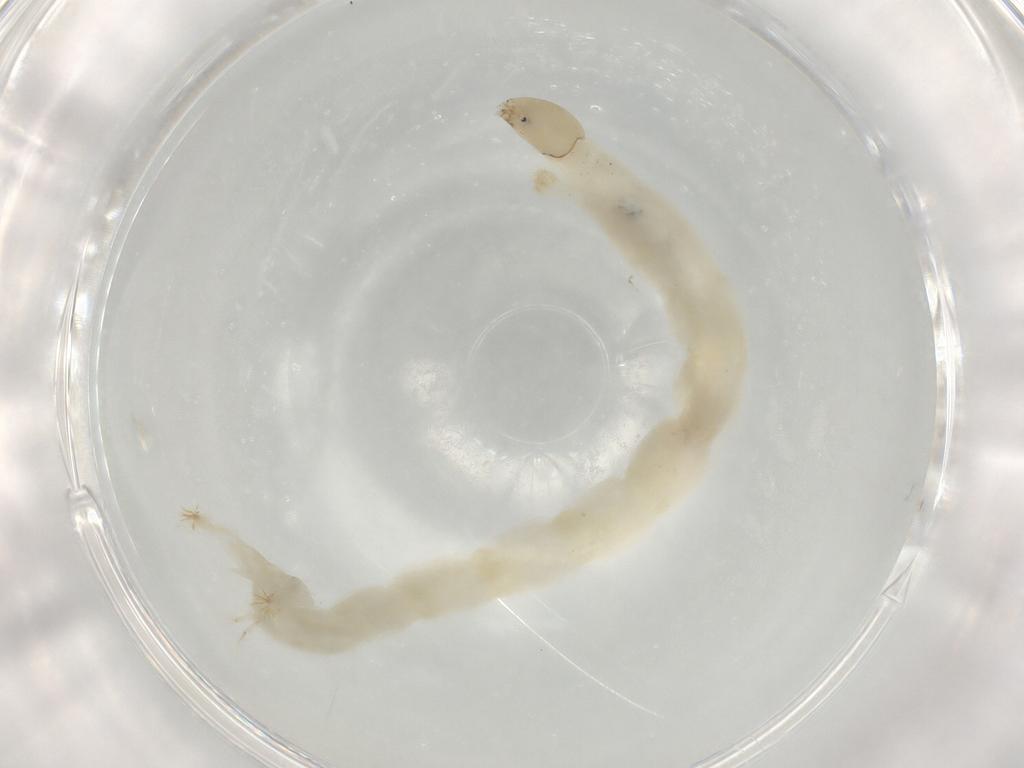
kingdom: Animalia
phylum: Arthropoda
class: Insecta
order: Diptera
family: Chironomidae
